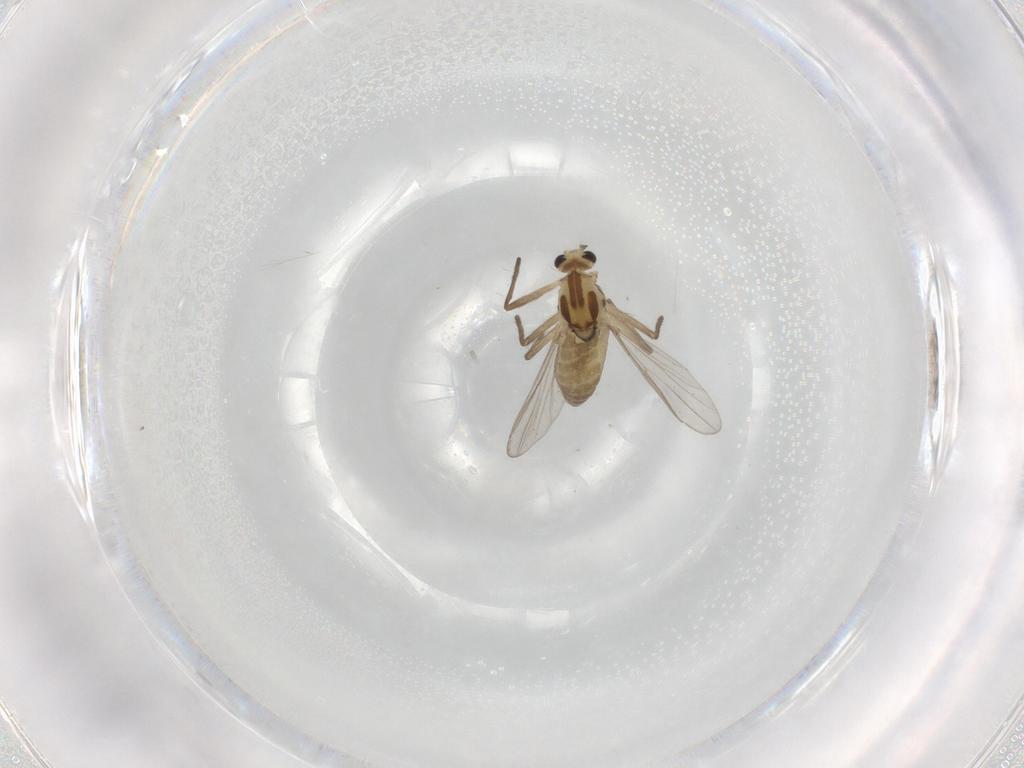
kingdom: Animalia
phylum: Arthropoda
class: Insecta
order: Diptera
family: Chironomidae
